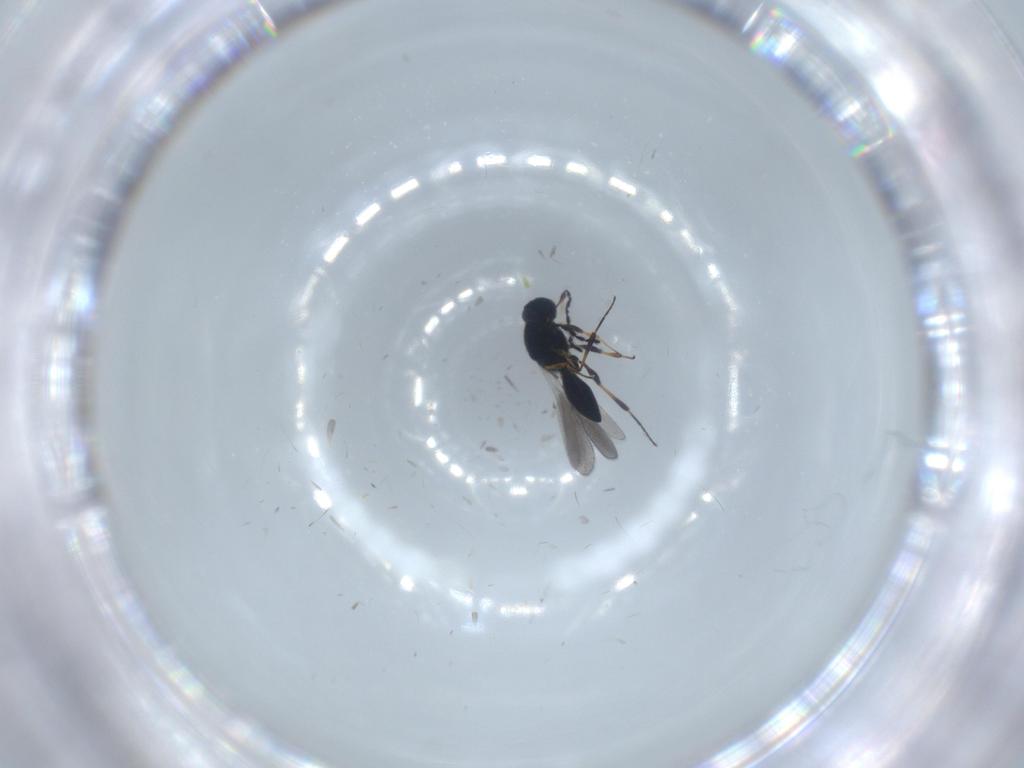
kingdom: Animalia
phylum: Arthropoda
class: Insecta
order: Hymenoptera
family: Platygastridae
